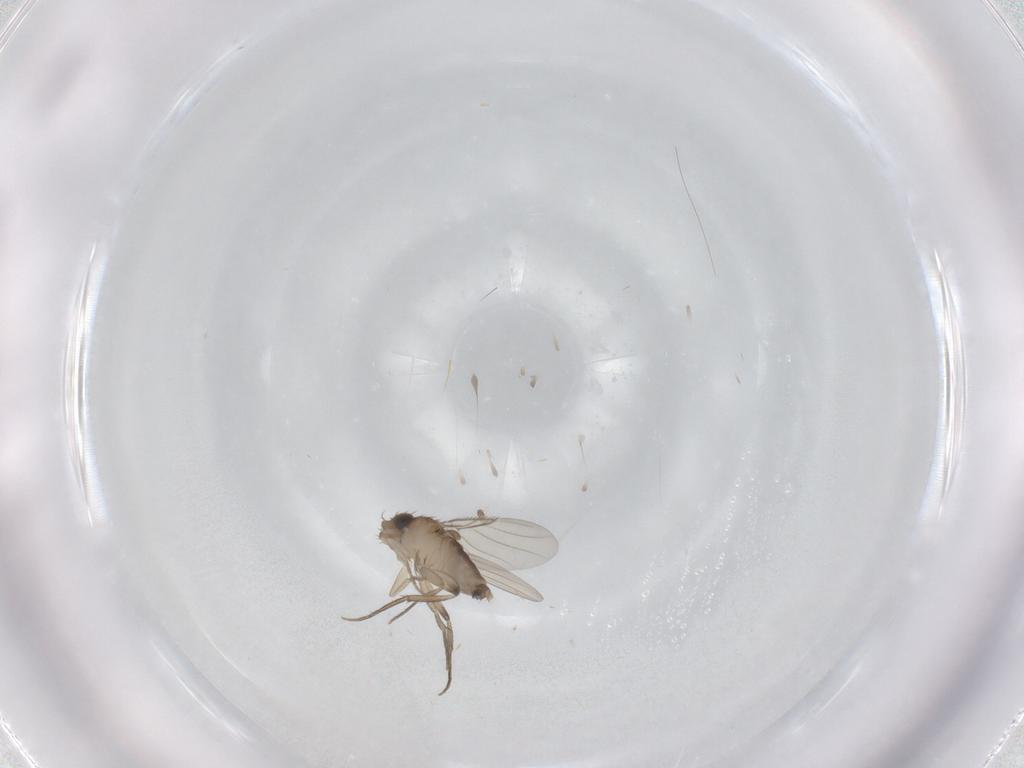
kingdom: Animalia
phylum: Arthropoda
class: Insecta
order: Diptera
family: Phoridae
